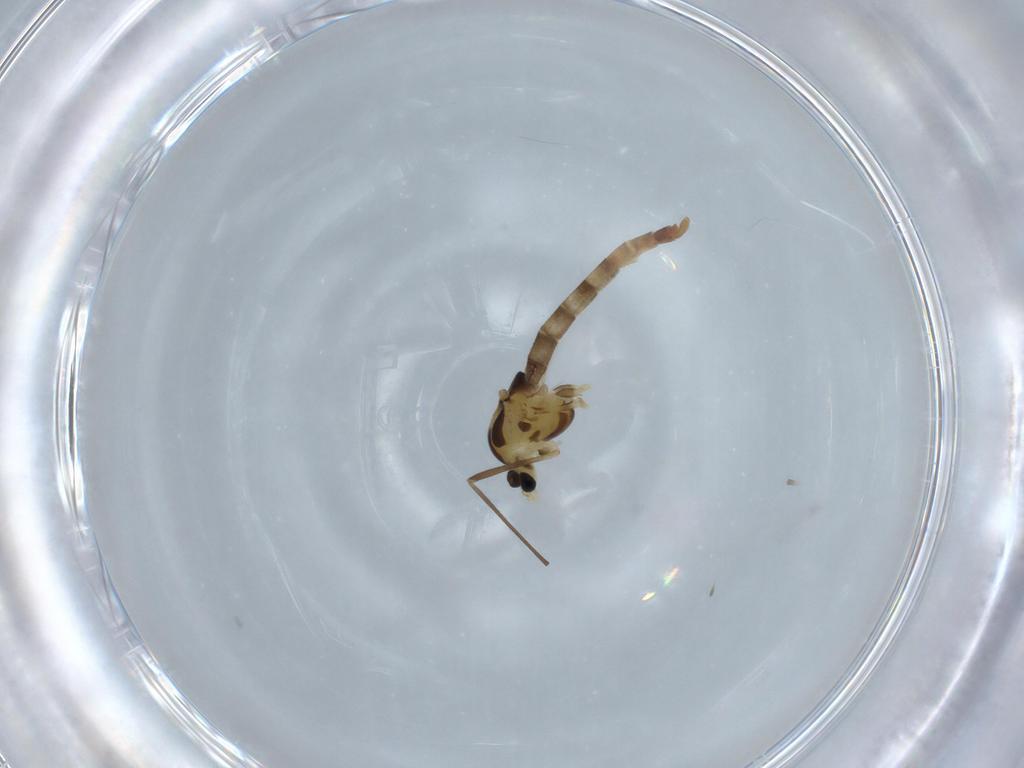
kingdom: Animalia
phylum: Arthropoda
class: Insecta
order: Diptera
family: Chironomidae
